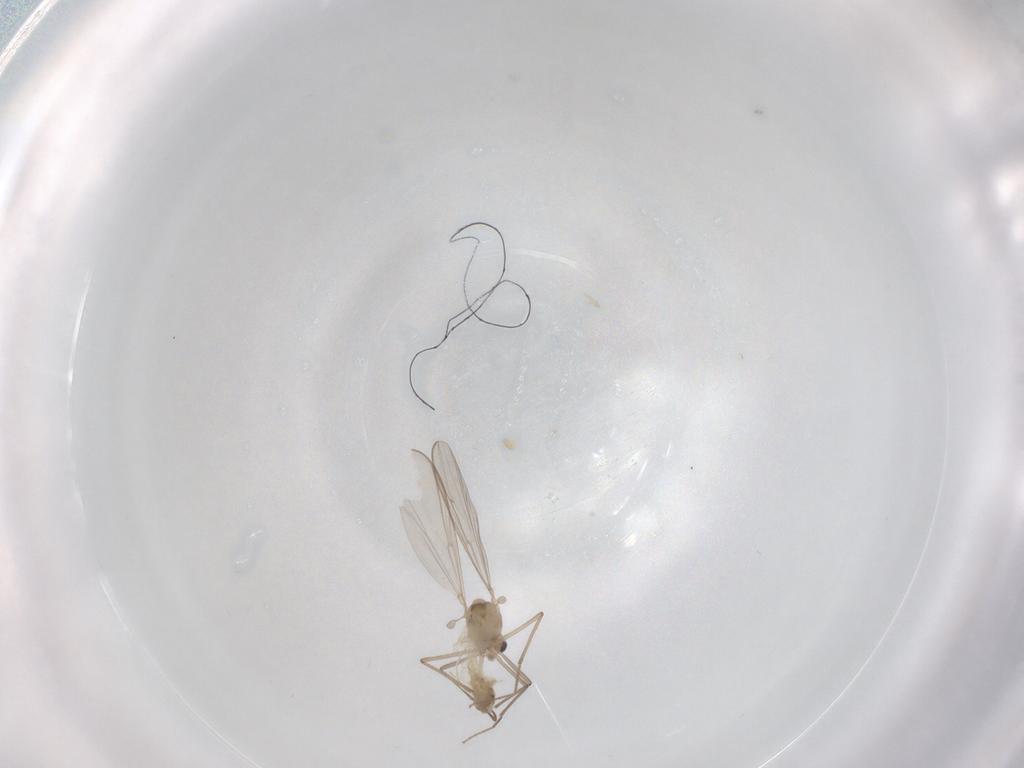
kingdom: Animalia
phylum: Arthropoda
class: Insecta
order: Diptera
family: Chironomidae
